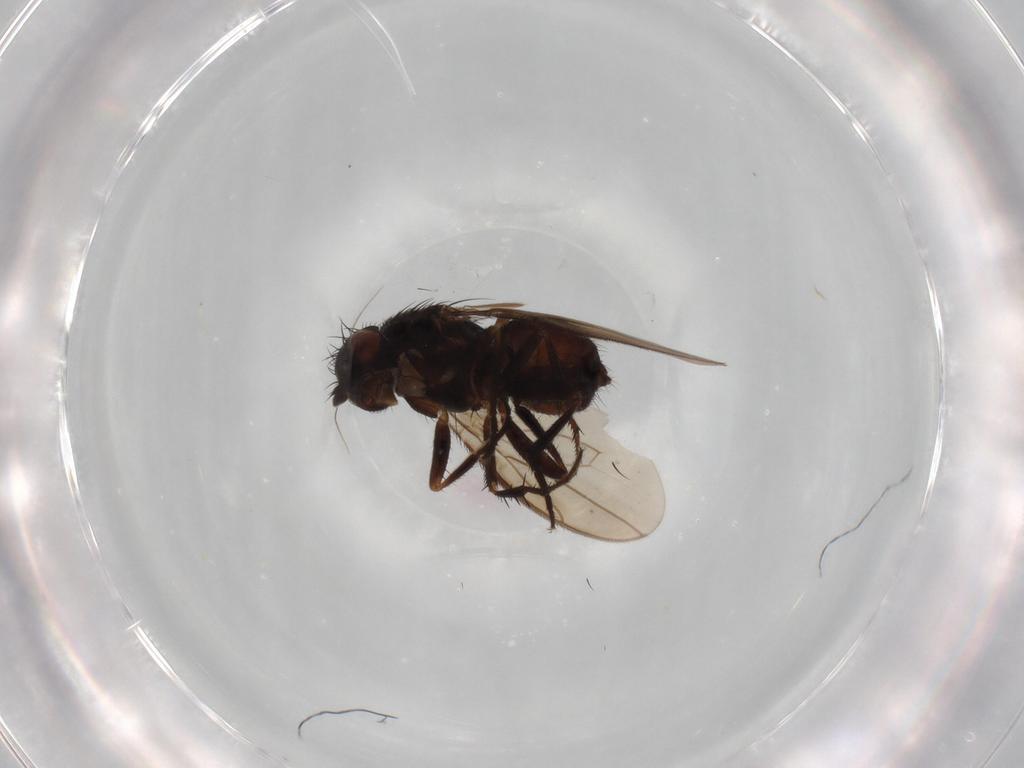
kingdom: Animalia
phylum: Arthropoda
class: Insecta
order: Diptera
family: Sphaeroceridae
